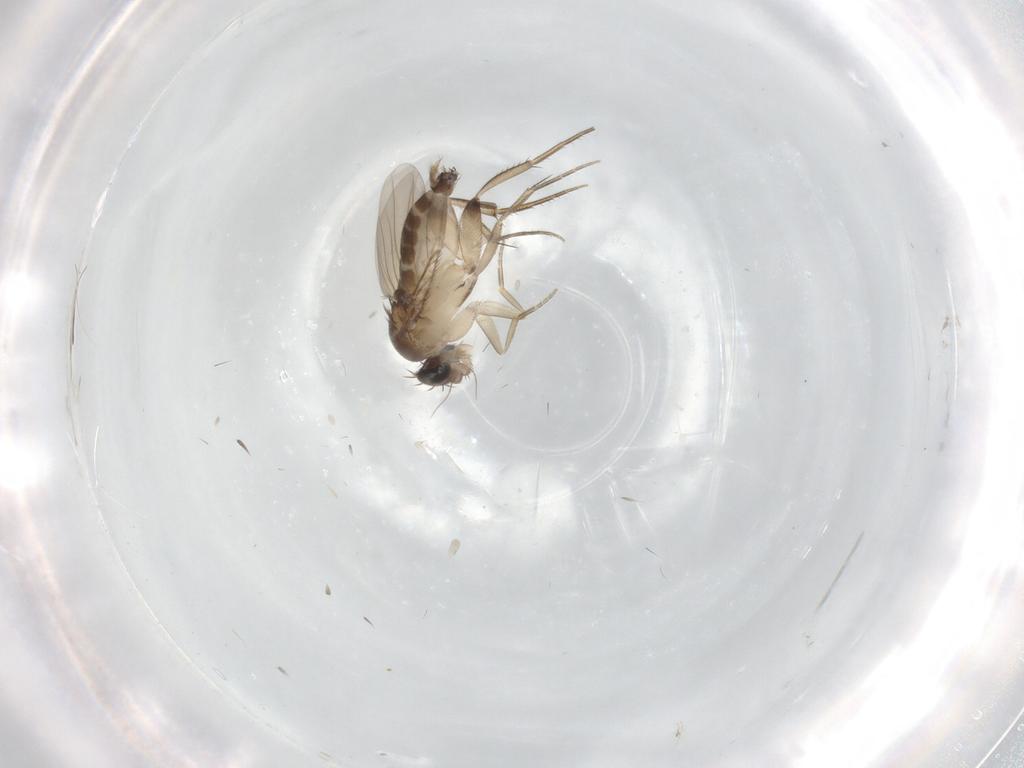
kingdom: Animalia
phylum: Arthropoda
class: Insecta
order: Diptera
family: Phoridae
